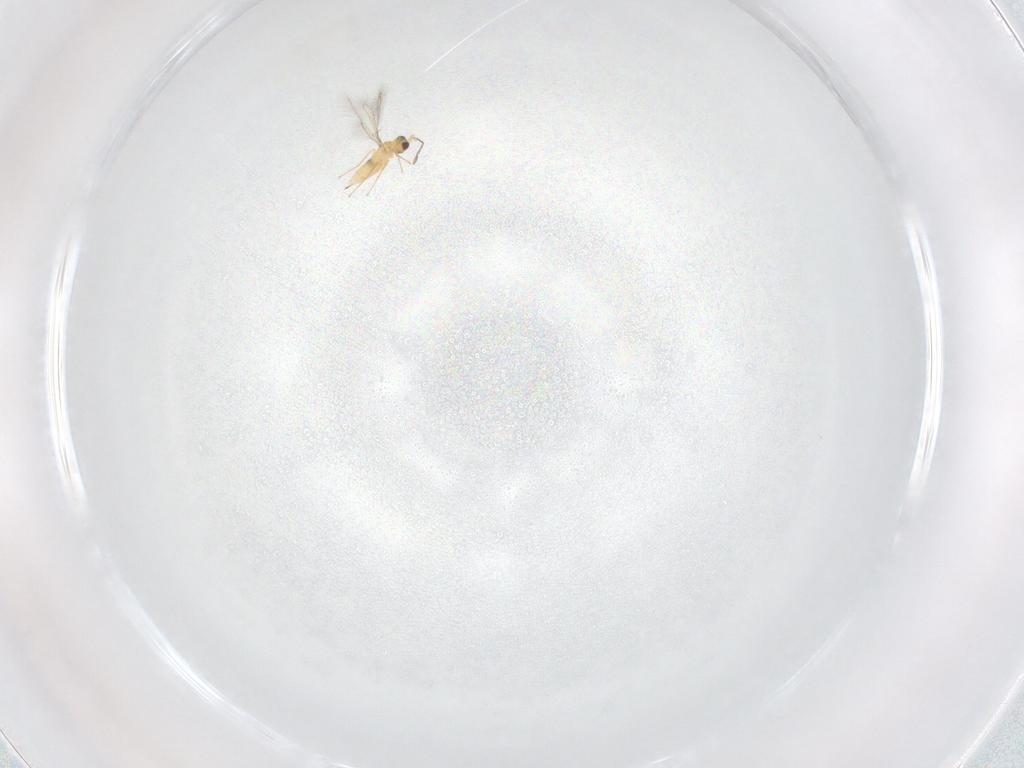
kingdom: Animalia
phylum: Arthropoda
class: Insecta
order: Hymenoptera
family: Mymaridae
